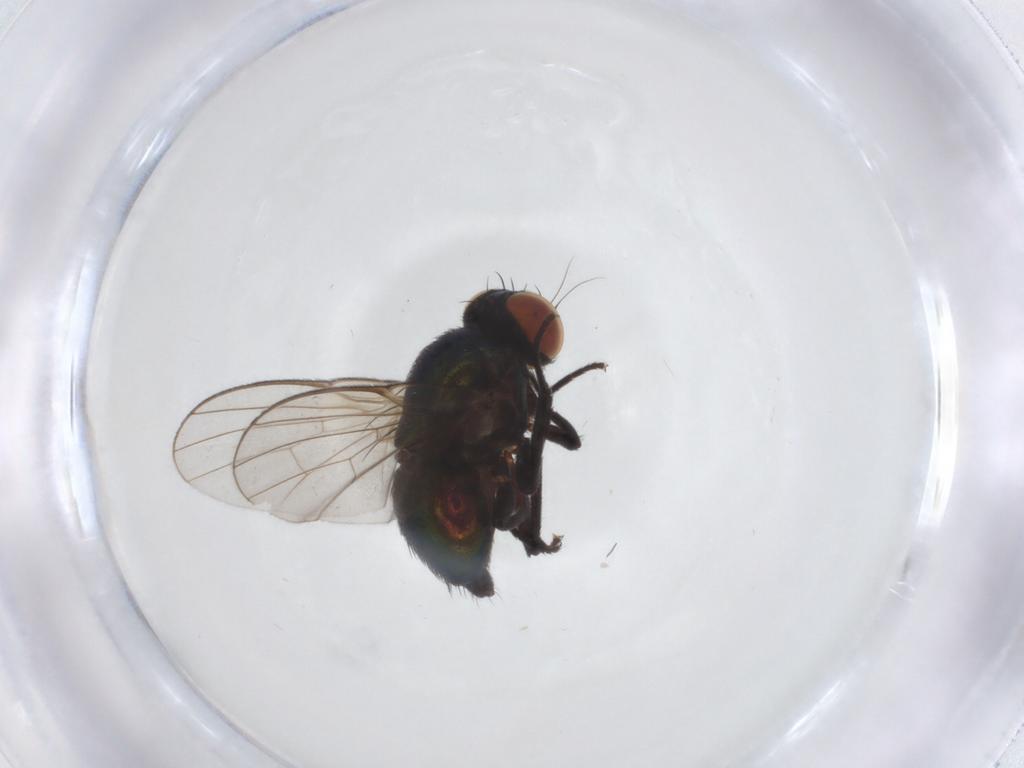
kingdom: Animalia
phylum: Arthropoda
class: Insecta
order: Diptera
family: Agromyzidae
